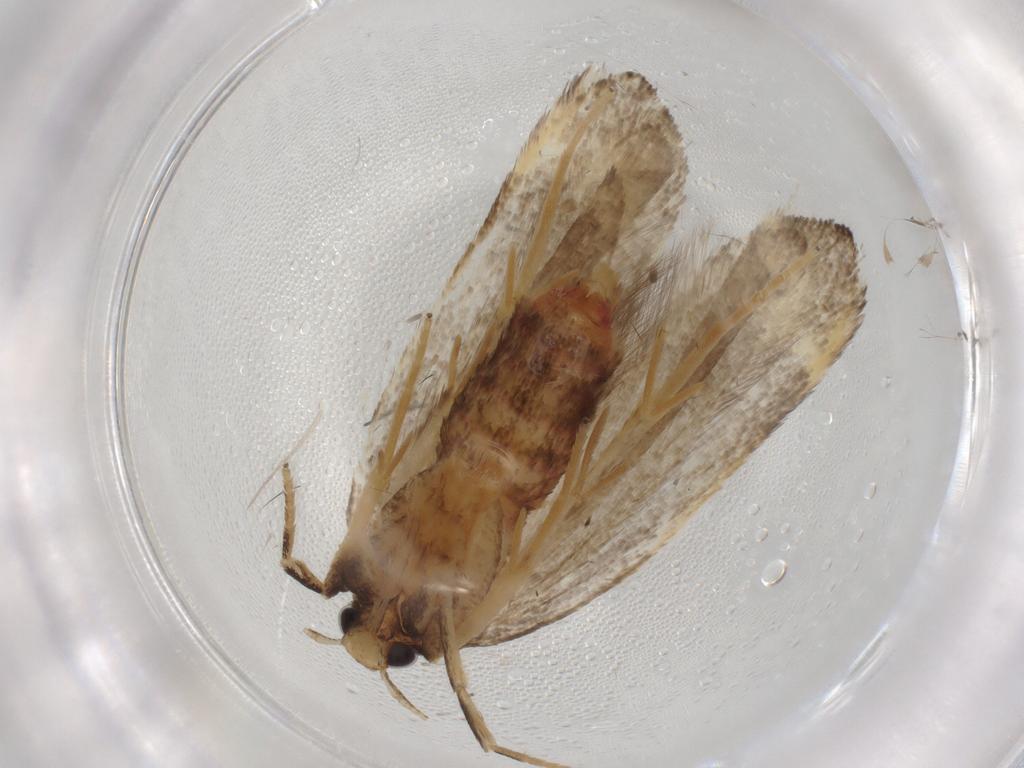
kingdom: Animalia
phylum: Arthropoda
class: Insecta
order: Lepidoptera
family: Lecithoceridae
